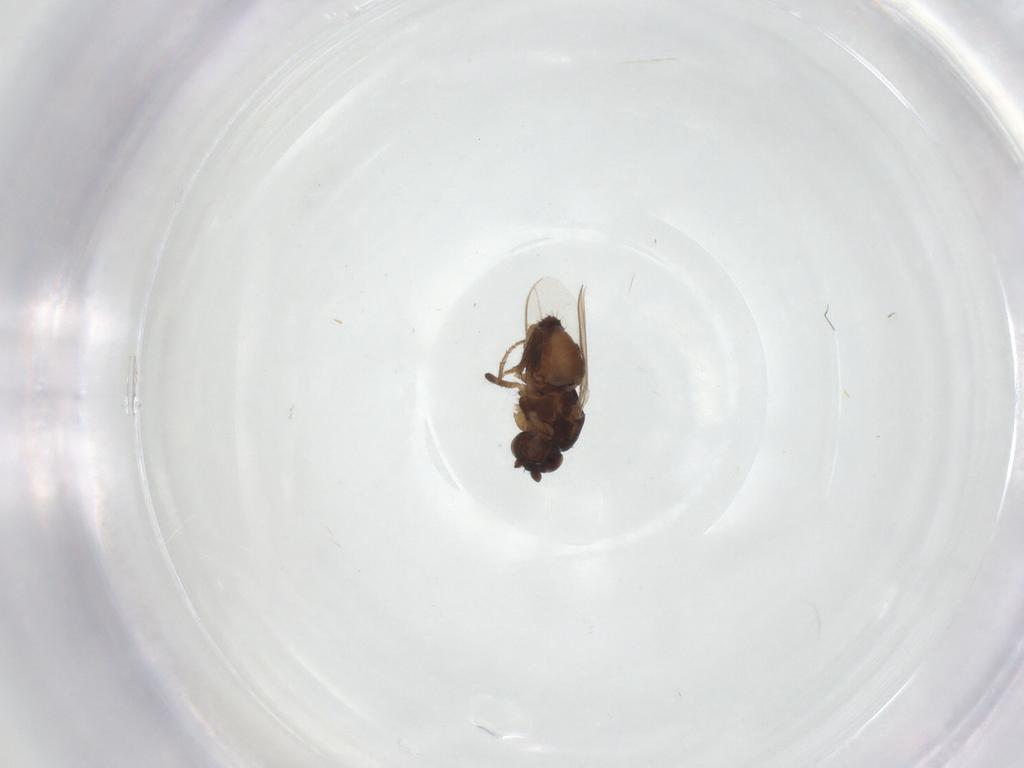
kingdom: Animalia
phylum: Arthropoda
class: Insecta
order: Diptera
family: Sphaeroceridae
